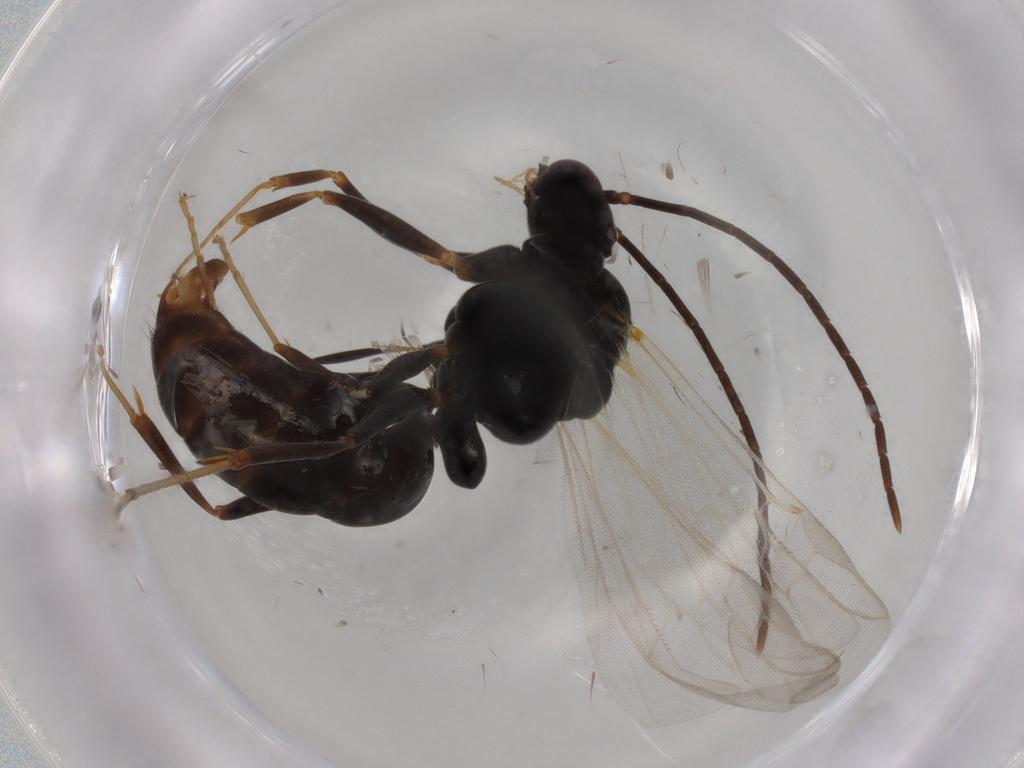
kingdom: Animalia
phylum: Arthropoda
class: Insecta
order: Hymenoptera
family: Formicidae
